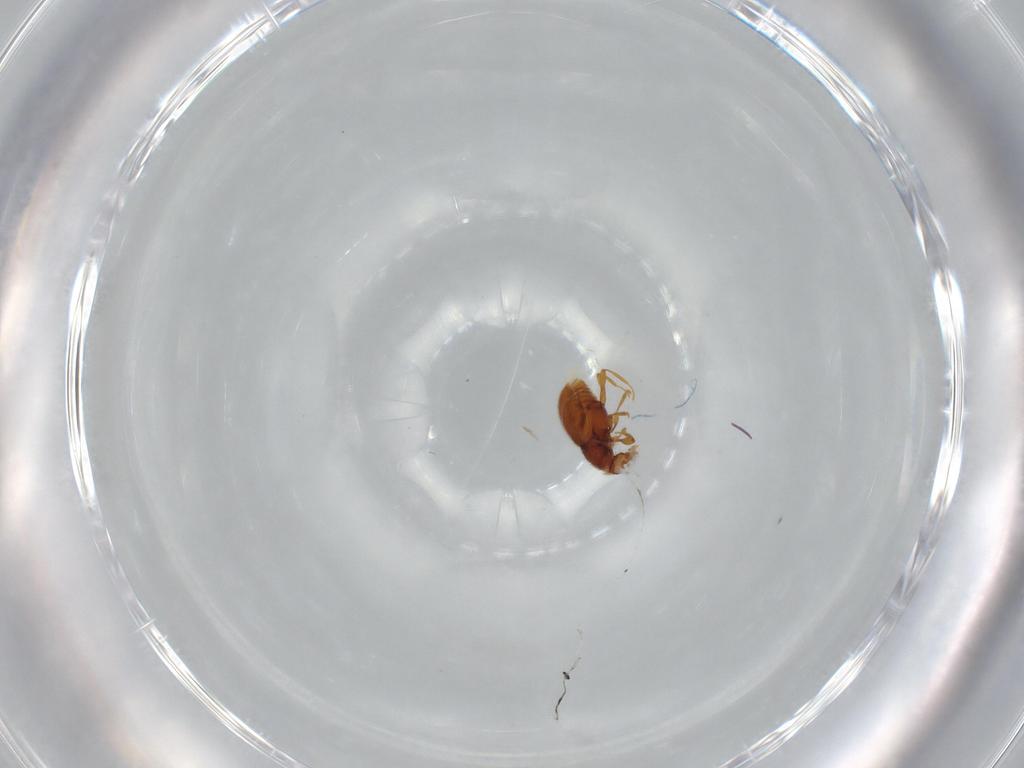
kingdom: Animalia
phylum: Arthropoda
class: Insecta
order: Coleoptera
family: Staphylinidae
